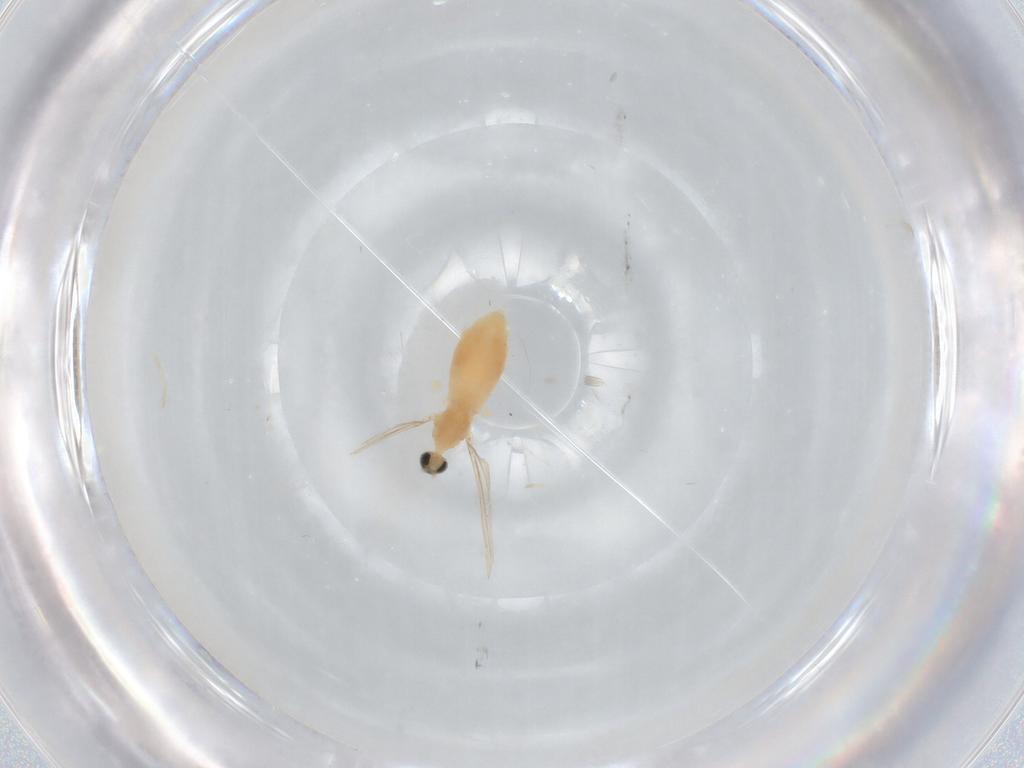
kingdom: Animalia
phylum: Arthropoda
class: Insecta
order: Diptera
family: Cecidomyiidae
